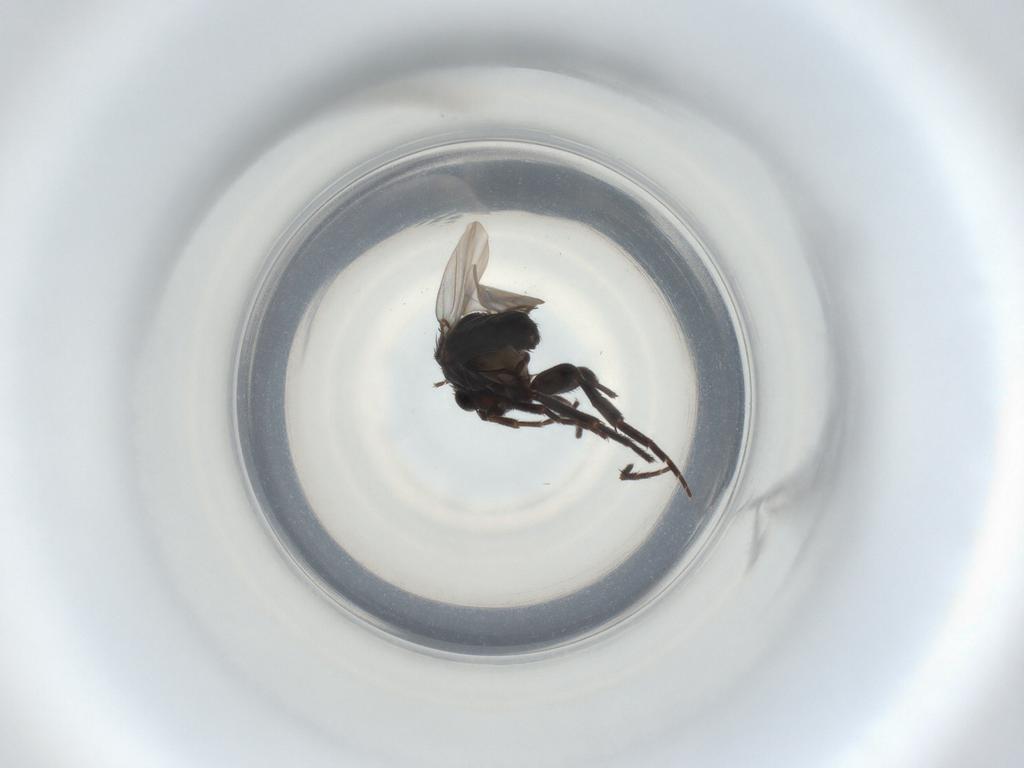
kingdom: Animalia
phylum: Arthropoda
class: Insecta
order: Diptera
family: Phoridae
